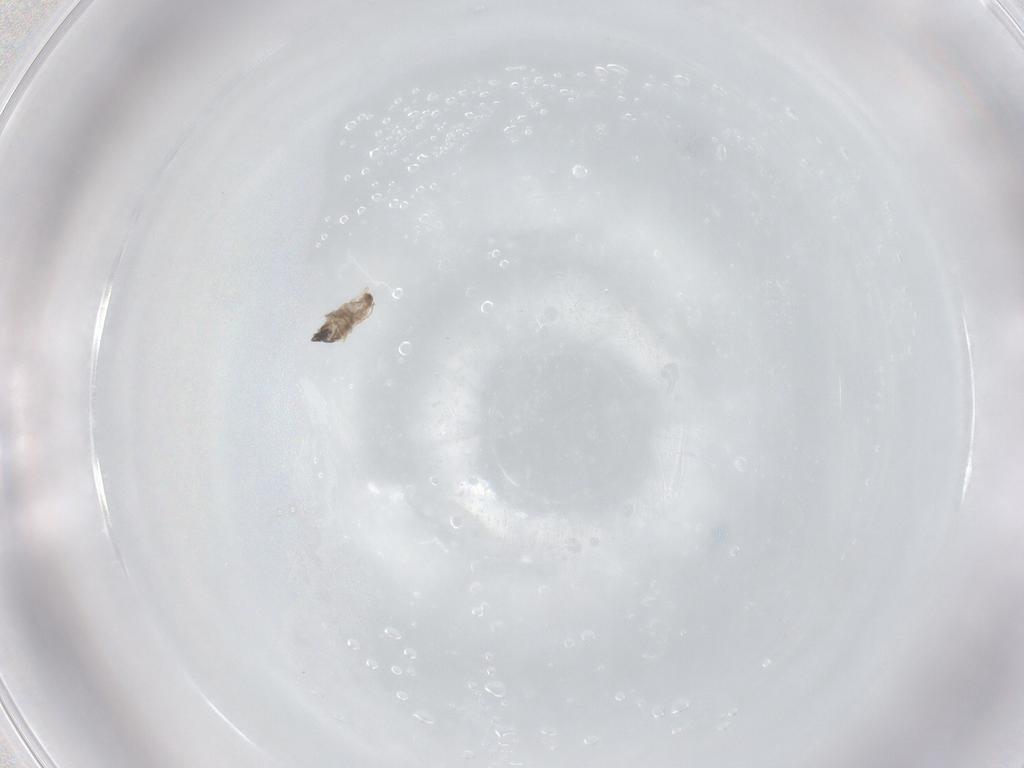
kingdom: Animalia
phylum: Arthropoda
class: Insecta
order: Diptera
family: Cecidomyiidae
